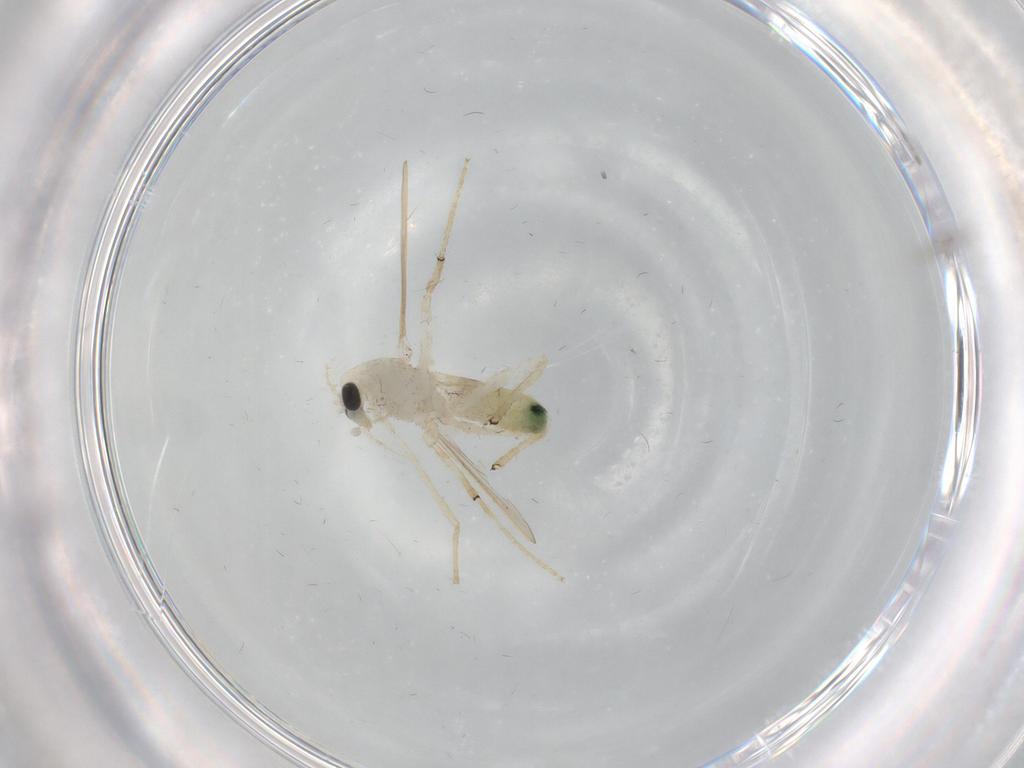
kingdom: Animalia
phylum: Arthropoda
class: Insecta
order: Diptera
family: Chironomidae
